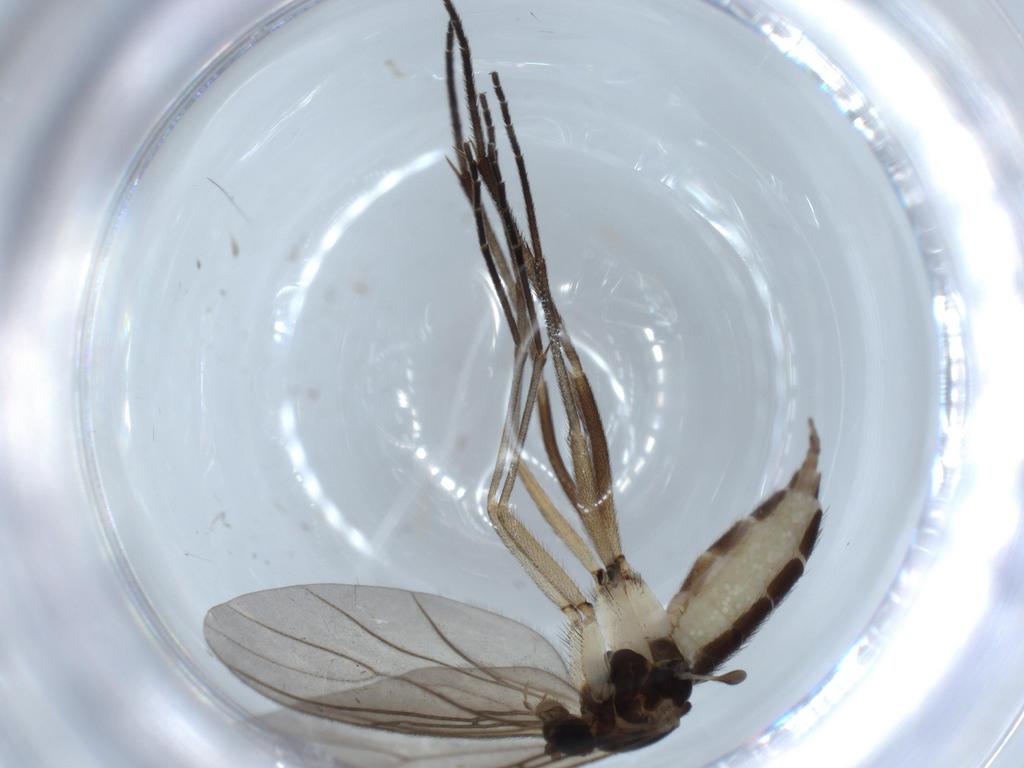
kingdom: Animalia
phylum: Arthropoda
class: Insecta
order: Diptera
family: Sciaridae
